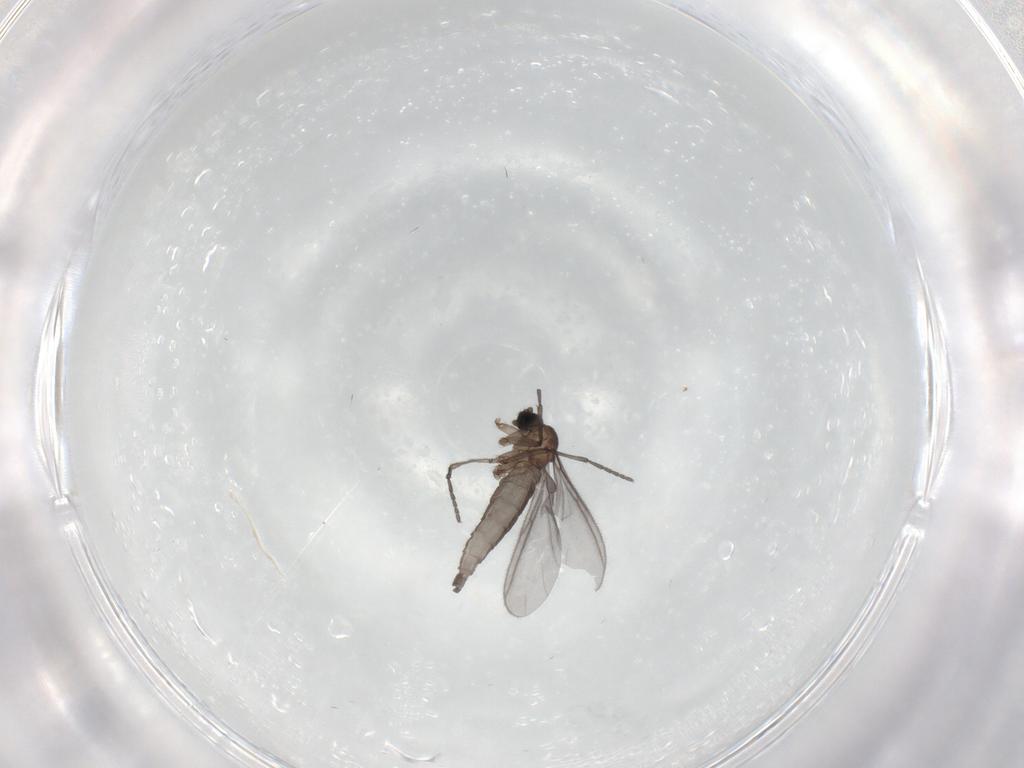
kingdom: Animalia
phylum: Arthropoda
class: Insecta
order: Diptera
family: Sciaridae
